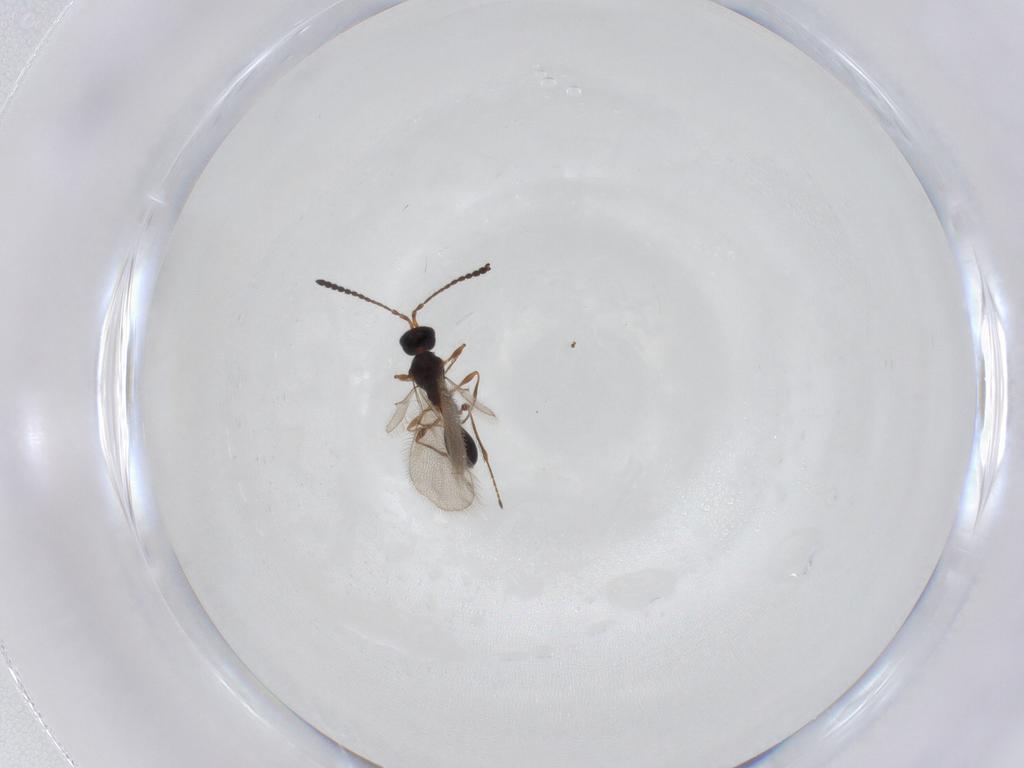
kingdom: Animalia
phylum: Arthropoda
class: Insecta
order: Hymenoptera
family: Diapriidae
